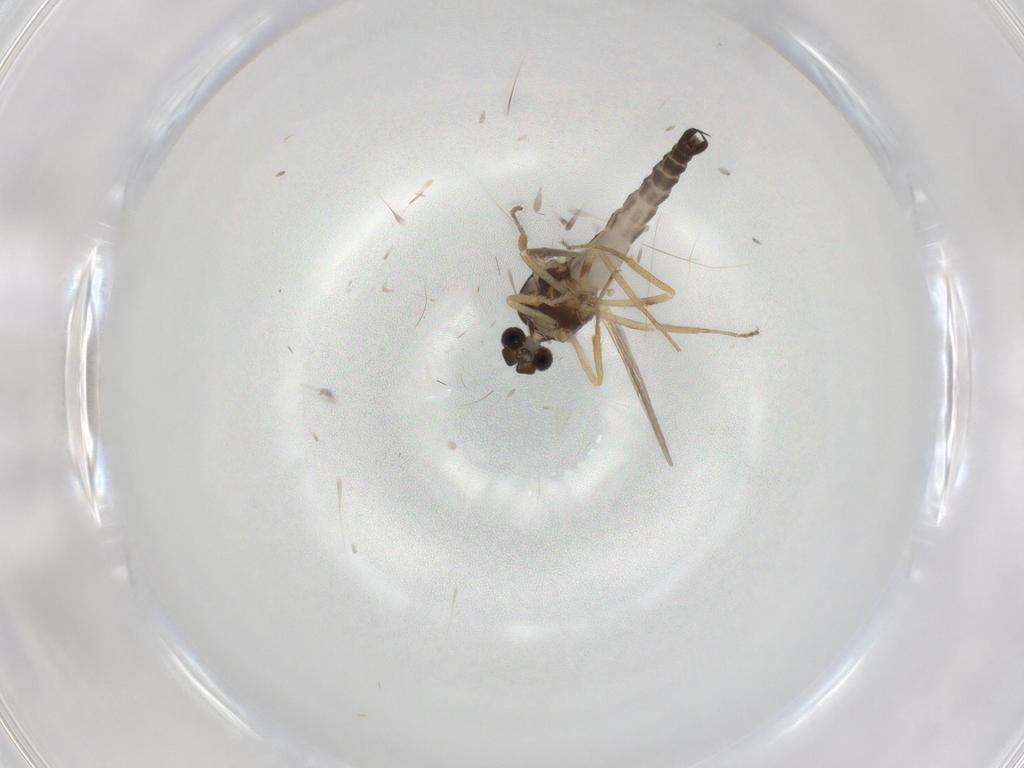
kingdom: Animalia
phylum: Arthropoda
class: Insecta
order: Diptera
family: Ceratopogonidae
